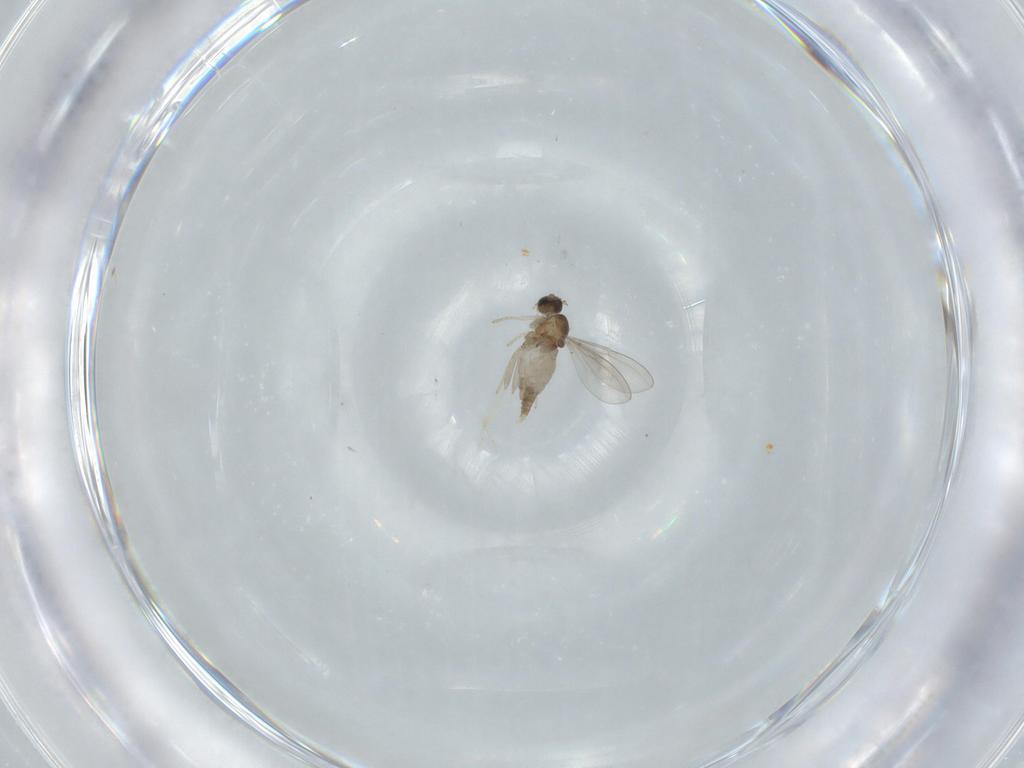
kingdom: Animalia
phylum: Arthropoda
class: Insecta
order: Diptera
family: Cecidomyiidae
